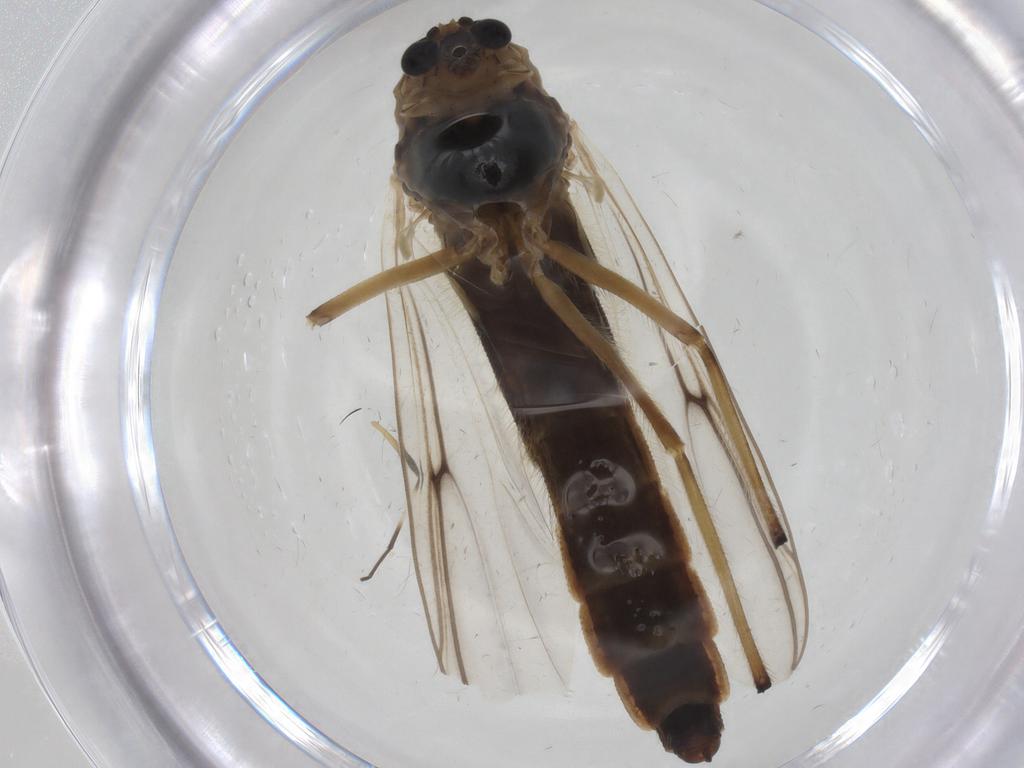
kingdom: Animalia
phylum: Arthropoda
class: Insecta
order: Diptera
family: Chironomidae
